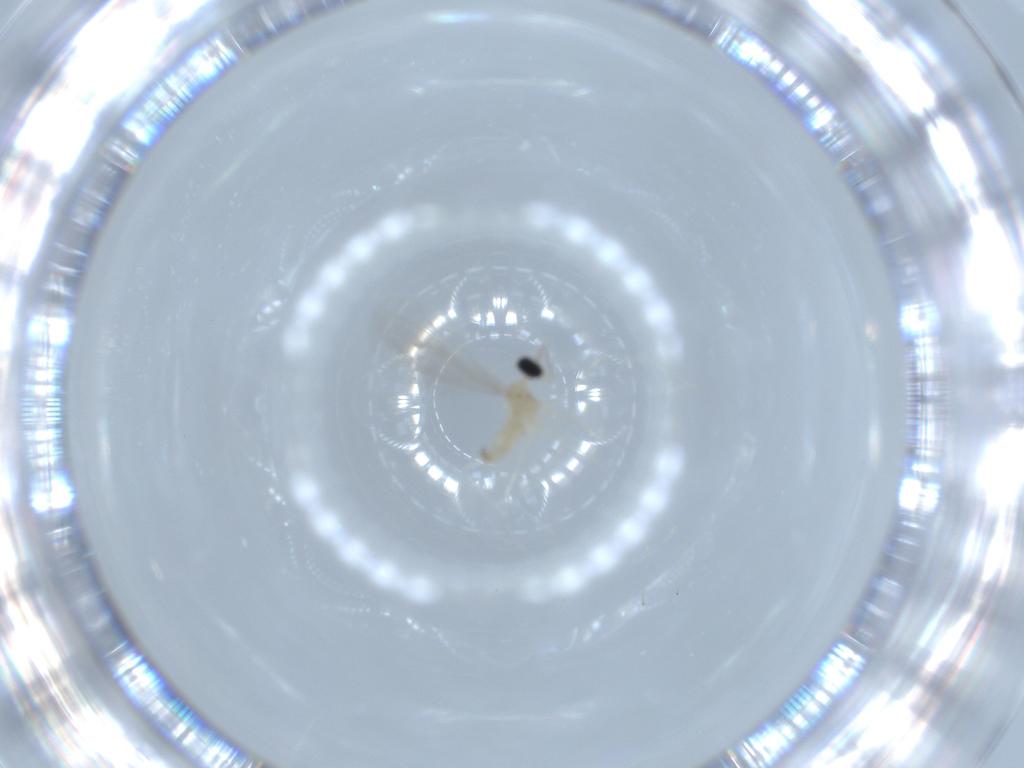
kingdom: Animalia
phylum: Arthropoda
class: Insecta
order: Diptera
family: Cecidomyiidae
